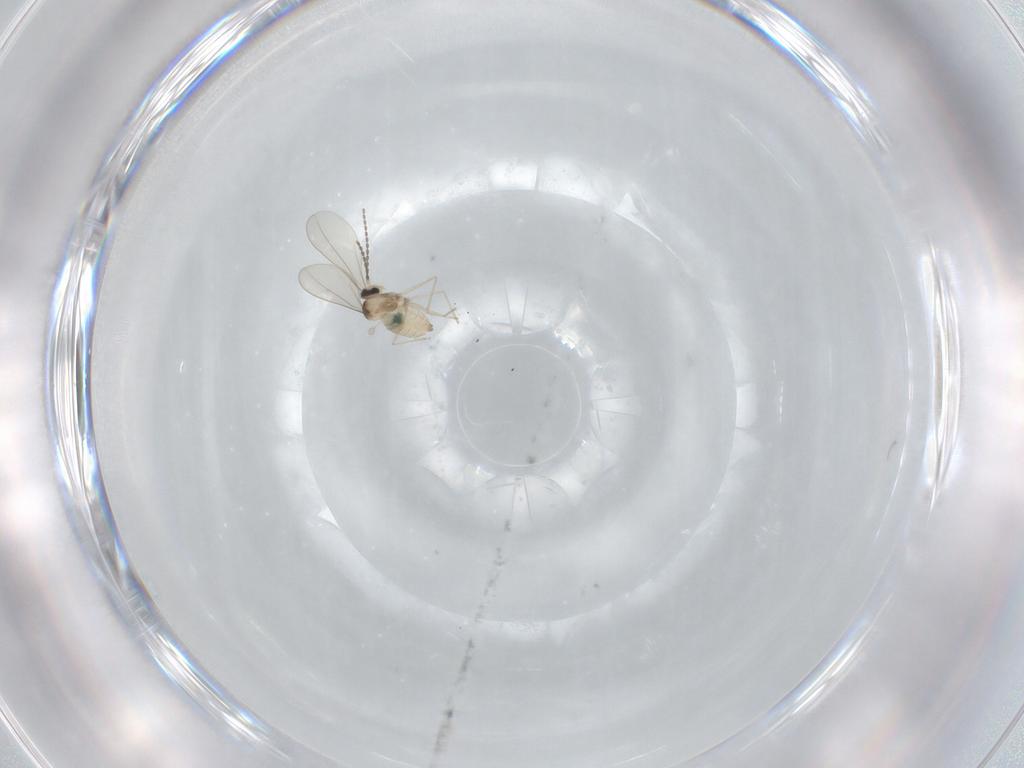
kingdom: Animalia
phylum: Arthropoda
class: Insecta
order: Diptera
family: Cecidomyiidae
